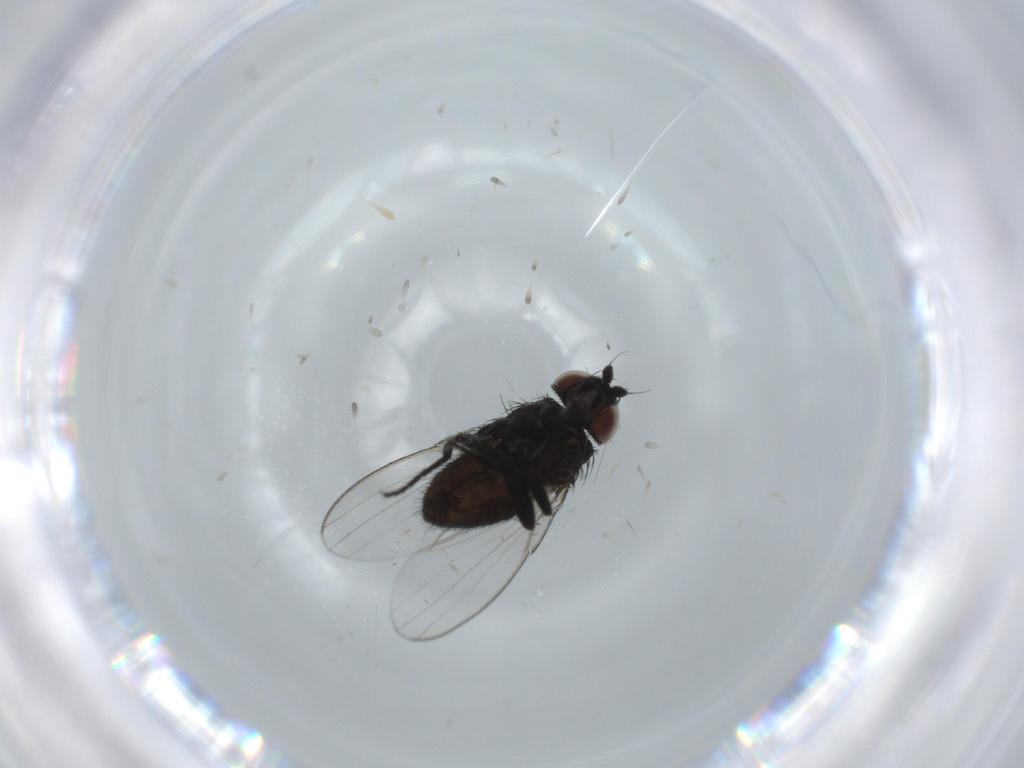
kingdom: Animalia
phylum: Arthropoda
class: Insecta
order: Diptera
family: Milichiidae
